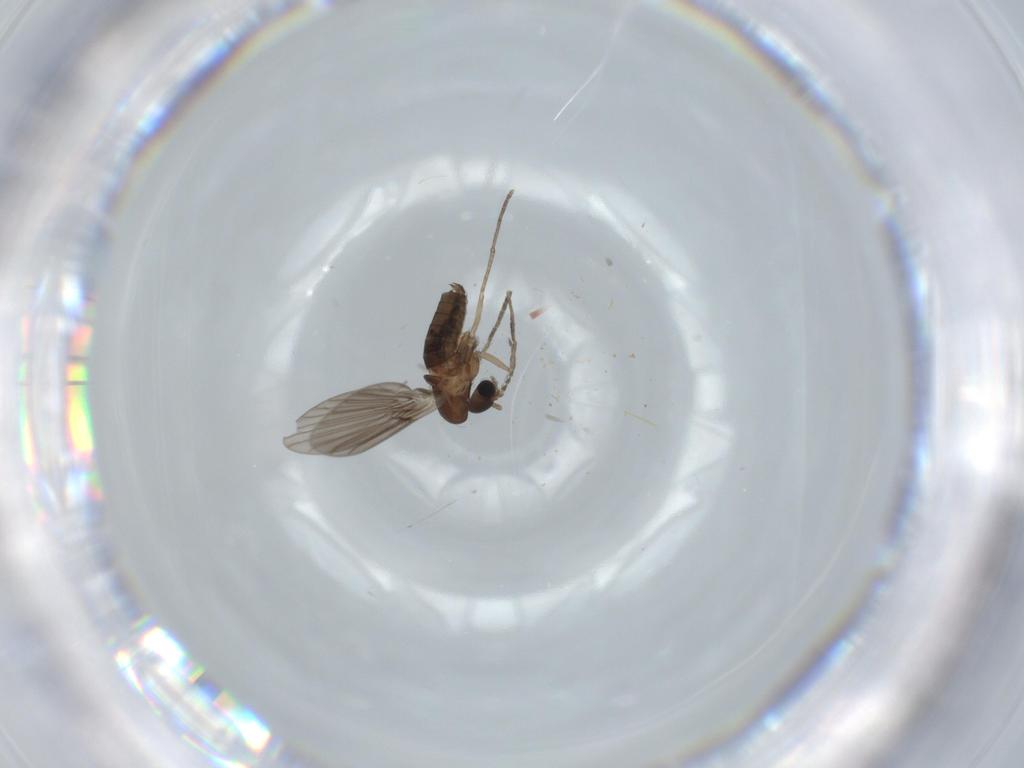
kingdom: Animalia
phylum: Arthropoda
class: Insecta
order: Diptera
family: Psychodidae
